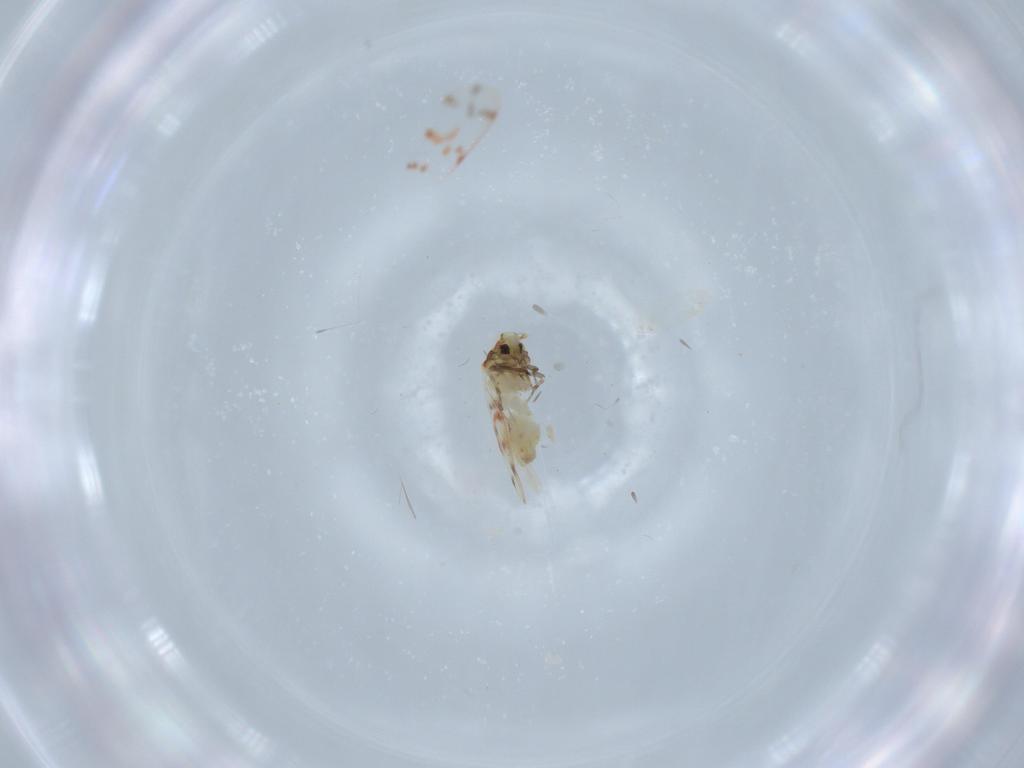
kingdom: Animalia
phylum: Arthropoda
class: Insecta
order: Hemiptera
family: Aleyrodidae
